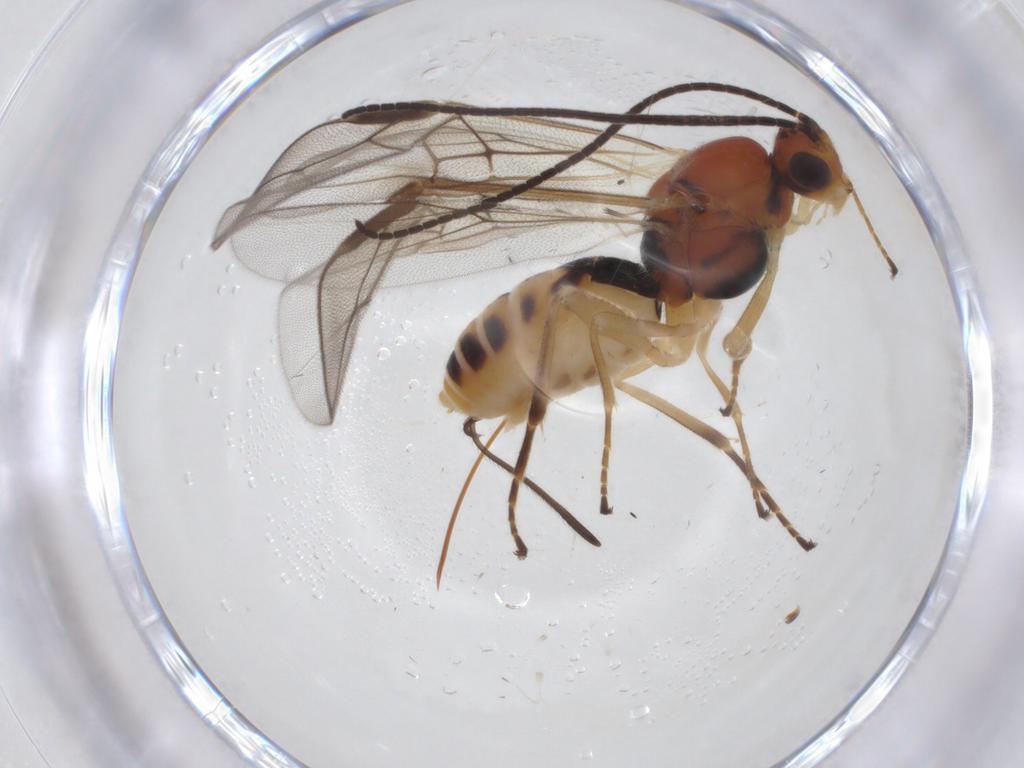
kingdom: Animalia
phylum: Arthropoda
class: Insecta
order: Hymenoptera
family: Braconidae
